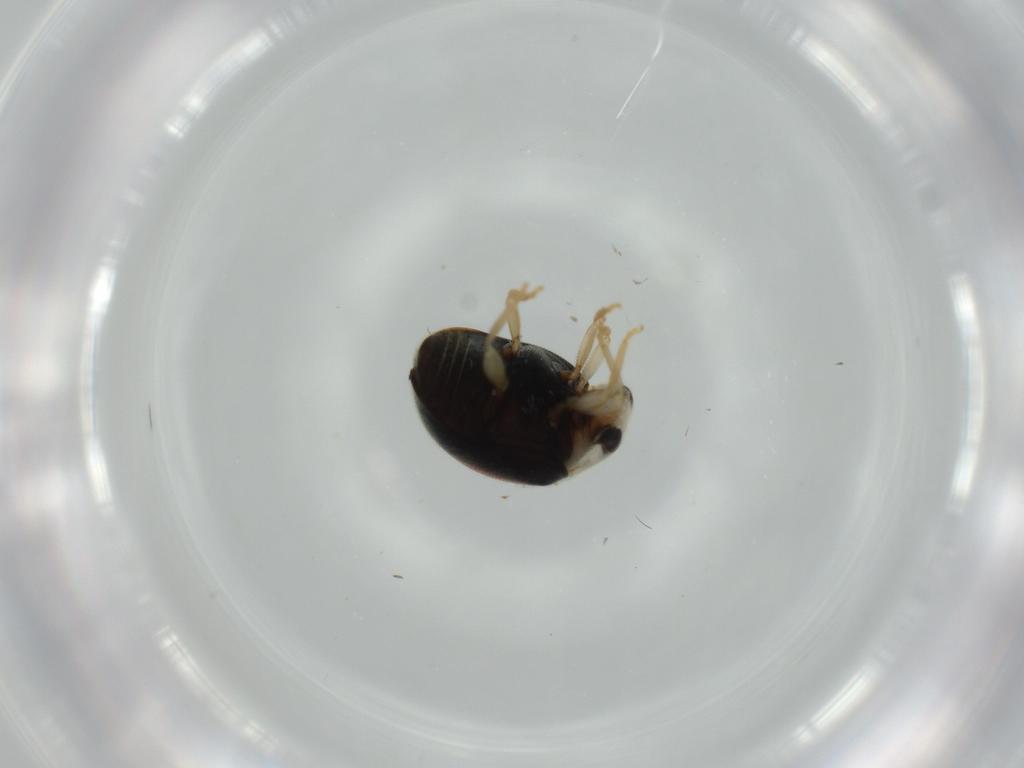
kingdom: Animalia
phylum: Arthropoda
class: Insecta
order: Coleoptera
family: Coccinellidae
